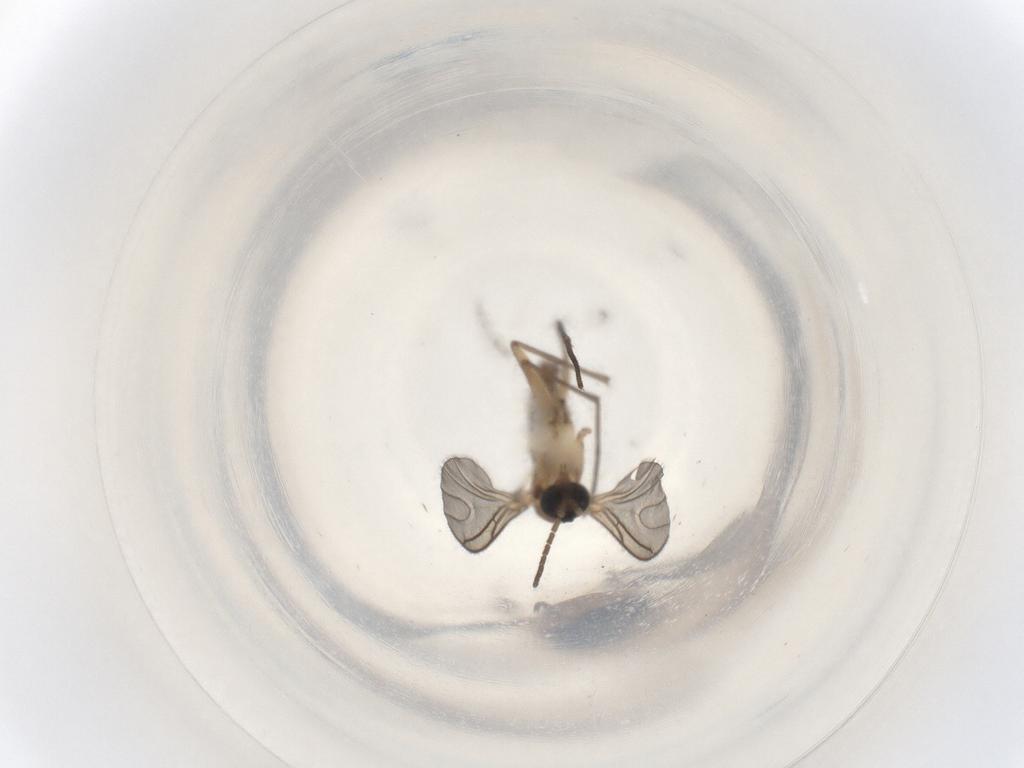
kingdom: Animalia
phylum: Arthropoda
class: Insecta
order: Diptera
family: Sciaridae
